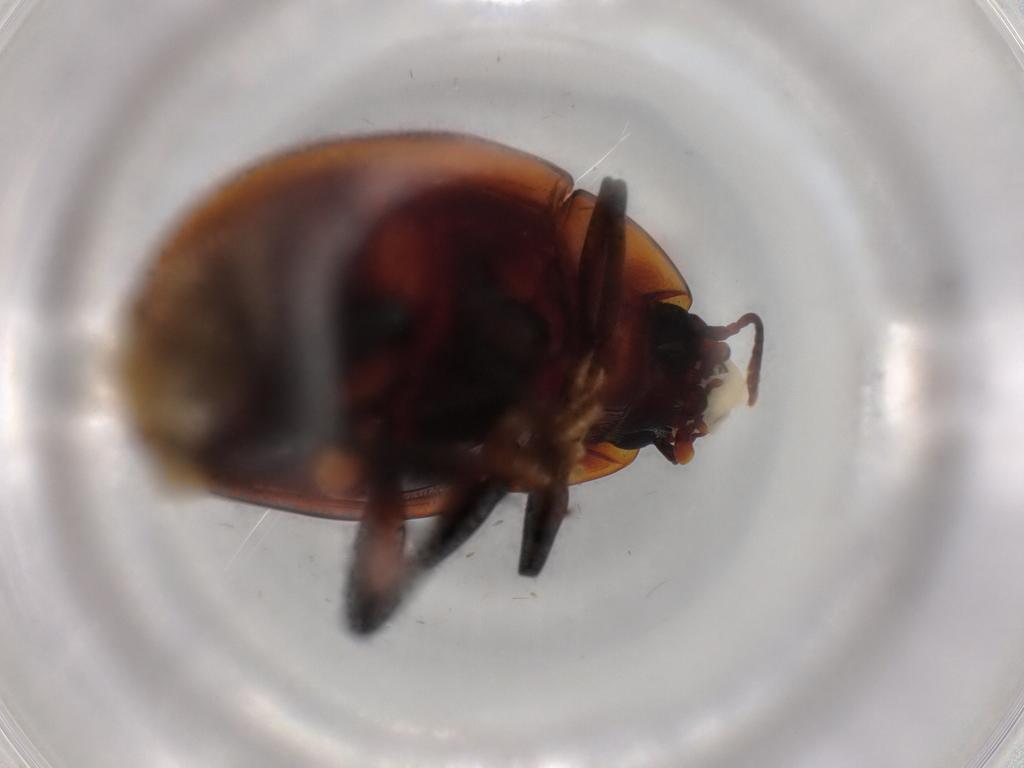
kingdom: Animalia
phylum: Arthropoda
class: Insecta
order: Coleoptera
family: Zopheridae
